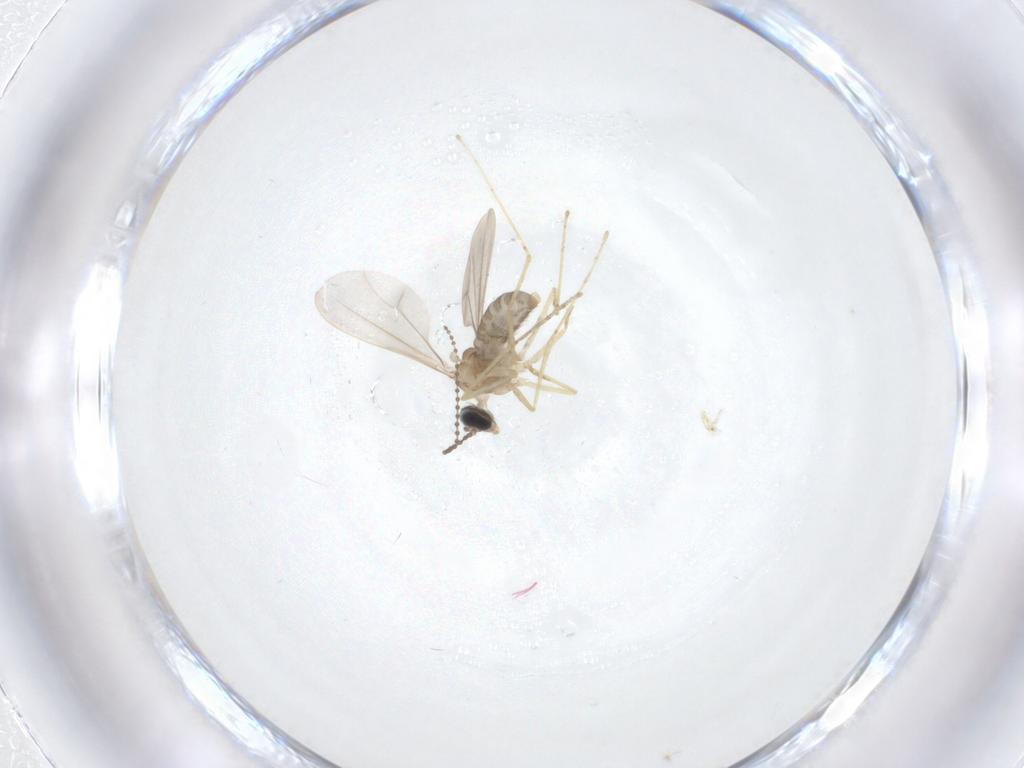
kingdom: Animalia
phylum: Arthropoda
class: Insecta
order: Diptera
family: Cecidomyiidae
